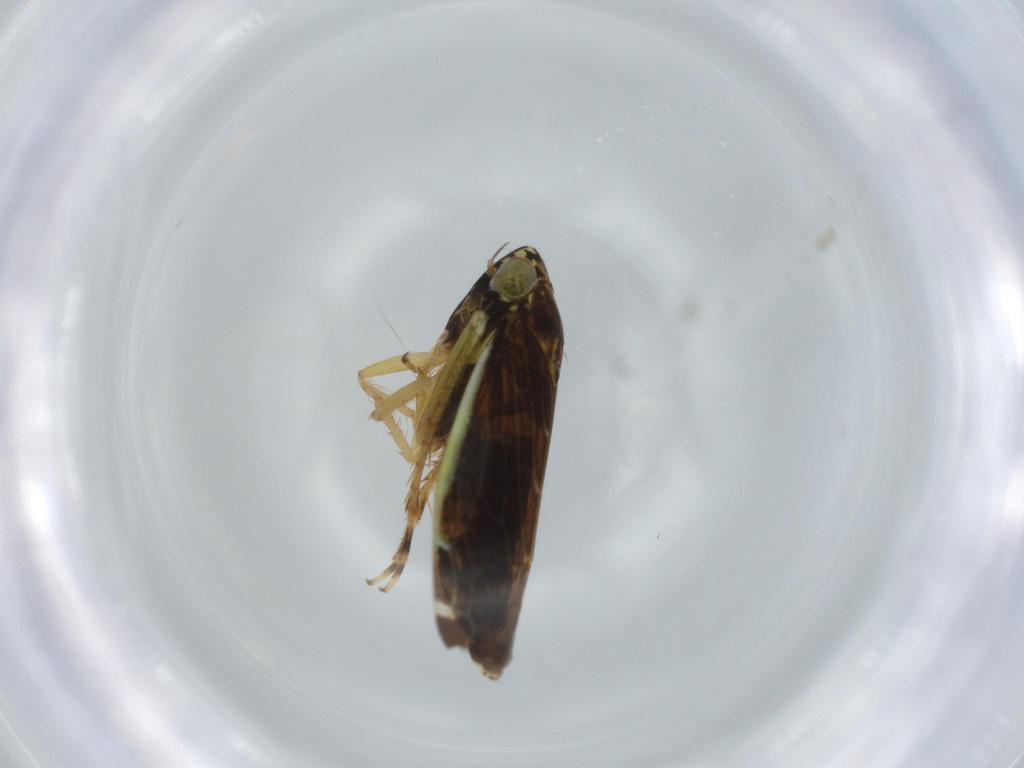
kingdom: Animalia
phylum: Arthropoda
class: Insecta
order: Hemiptera
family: Cicadellidae
